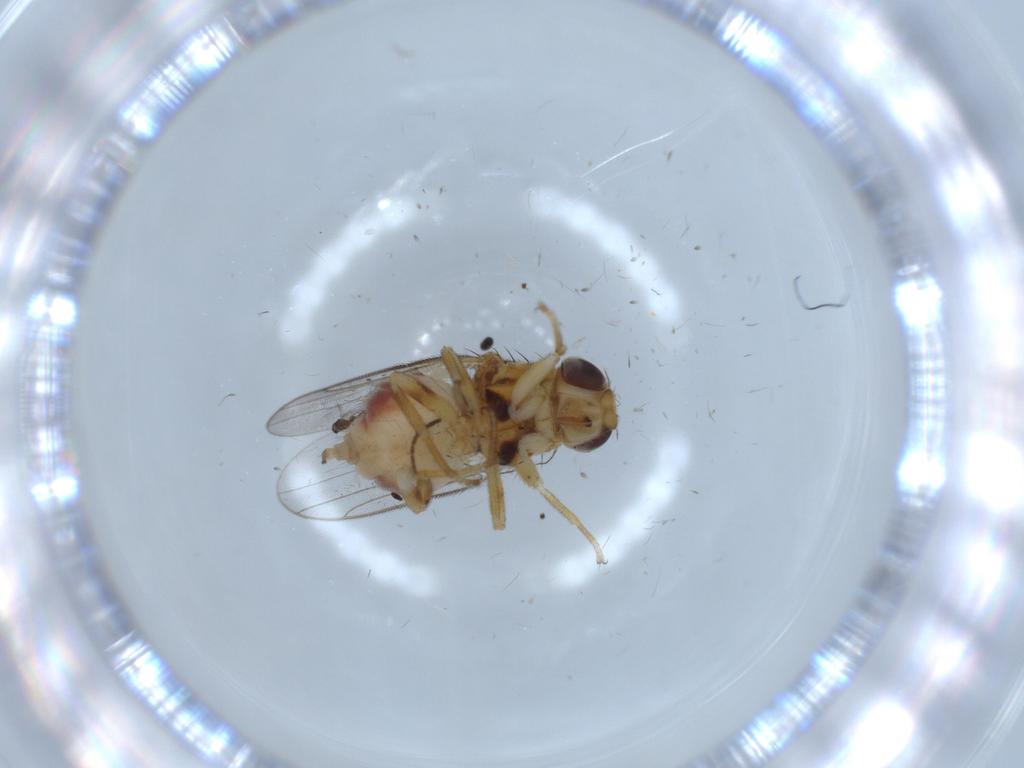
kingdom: Animalia
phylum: Arthropoda
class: Insecta
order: Diptera
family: Chloropidae
